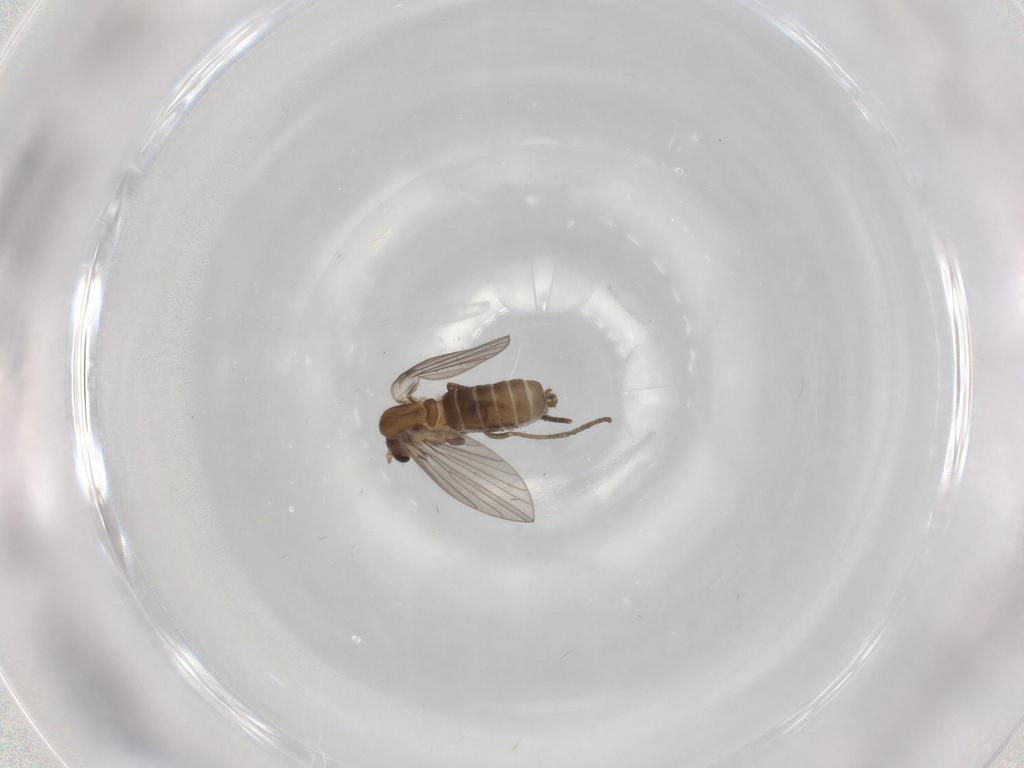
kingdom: Animalia
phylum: Arthropoda
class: Insecta
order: Diptera
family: Psychodidae
